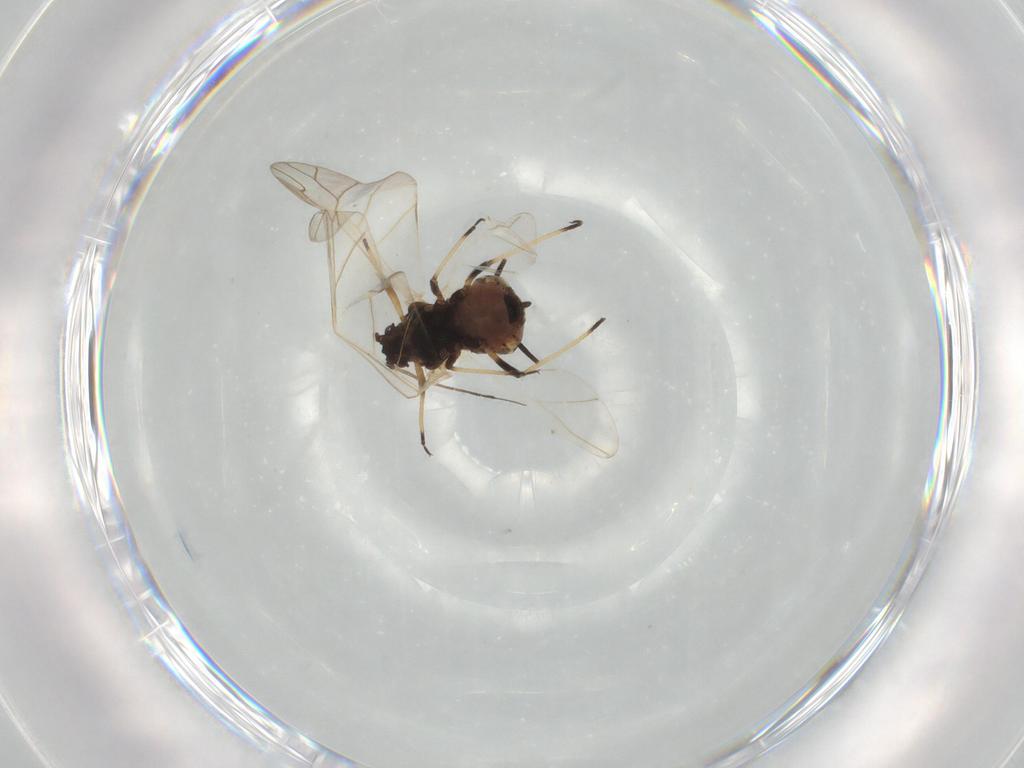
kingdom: Animalia
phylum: Arthropoda
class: Insecta
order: Hemiptera
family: Aphididae
